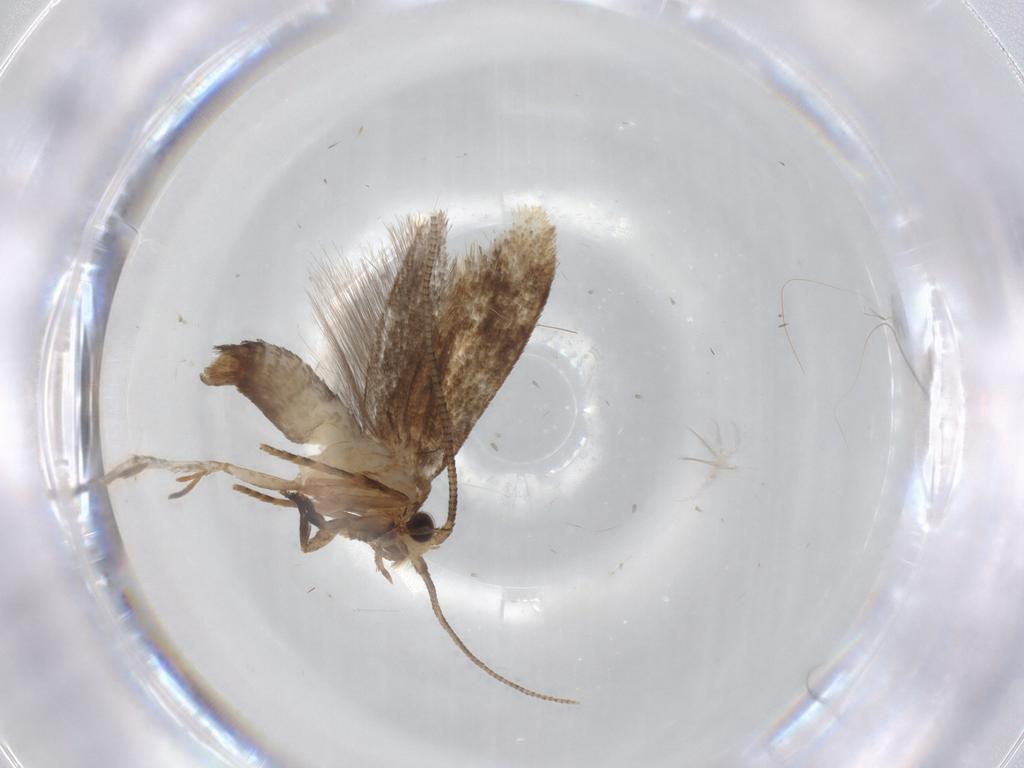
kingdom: Animalia
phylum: Arthropoda
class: Insecta
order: Lepidoptera
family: Tineidae
